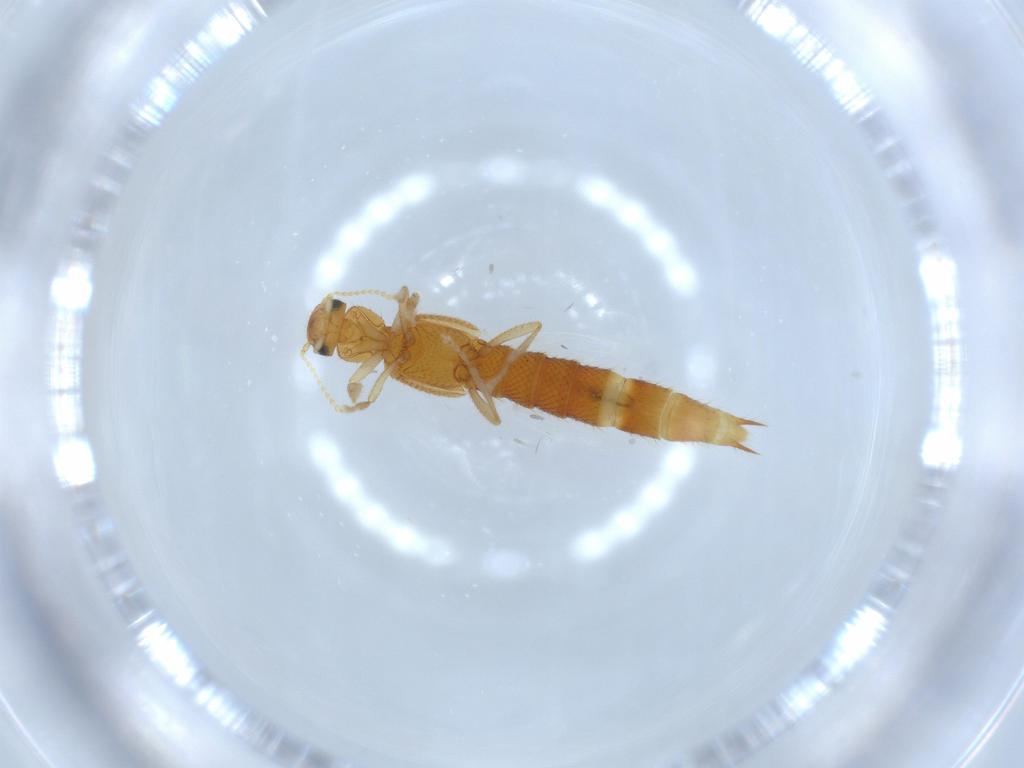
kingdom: Animalia
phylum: Arthropoda
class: Insecta
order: Coleoptera
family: Staphylinidae
